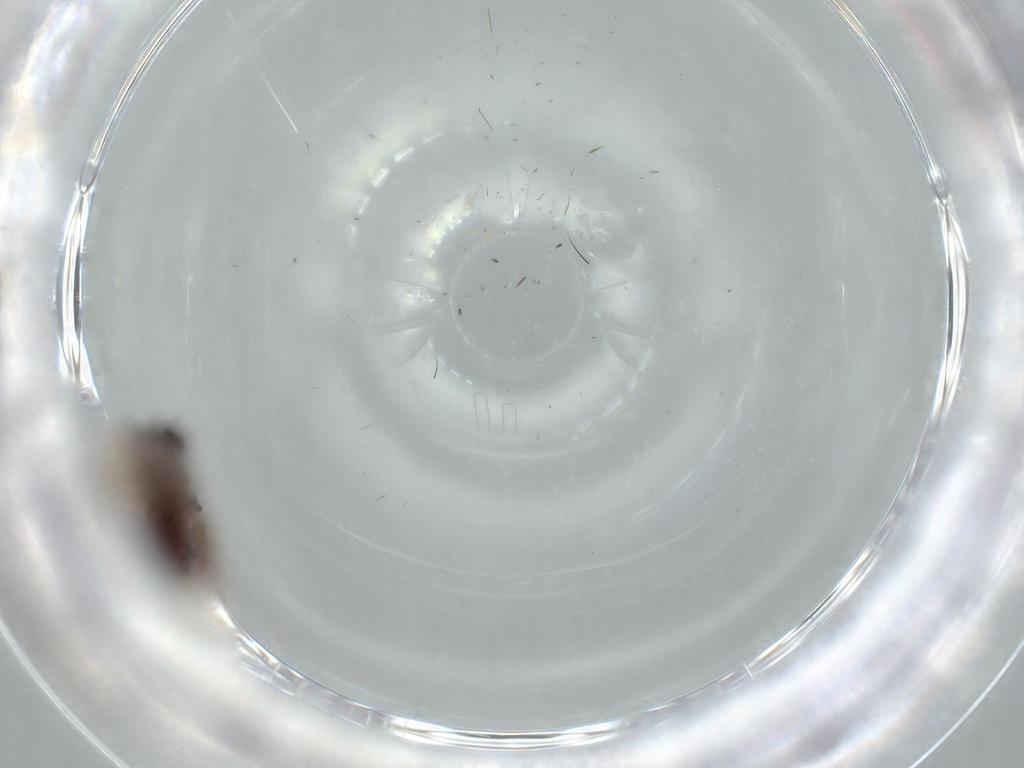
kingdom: Animalia
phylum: Arthropoda
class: Insecta
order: Coleoptera
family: Staphylinidae
